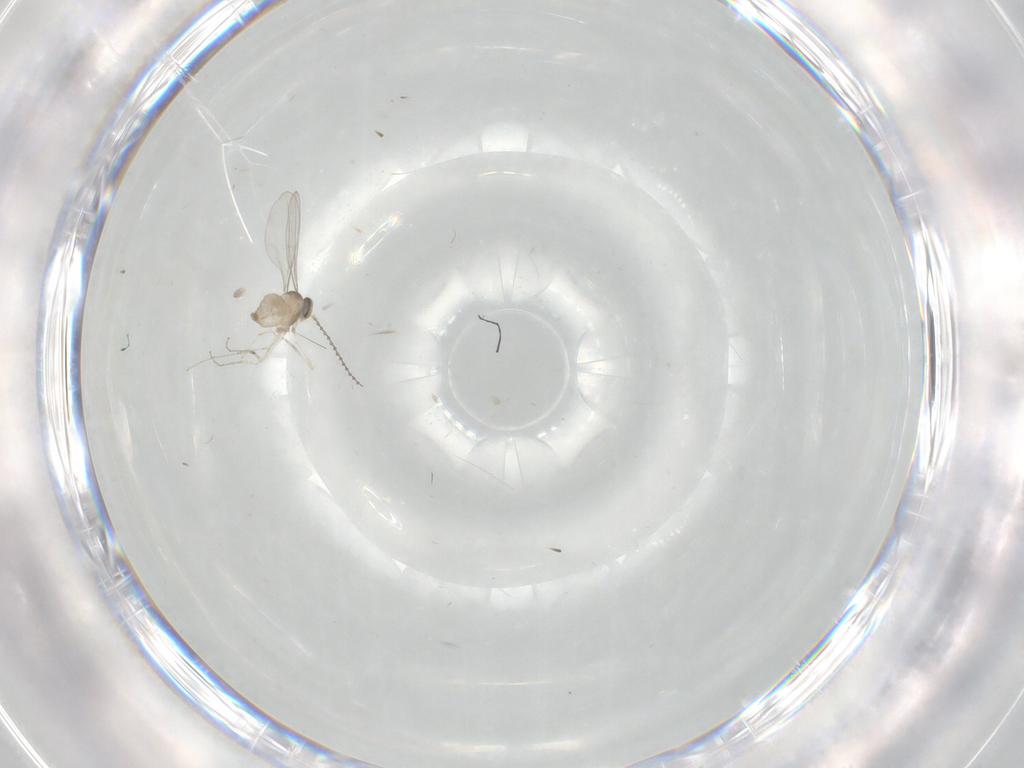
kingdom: Animalia
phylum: Arthropoda
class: Insecta
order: Diptera
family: Cecidomyiidae
